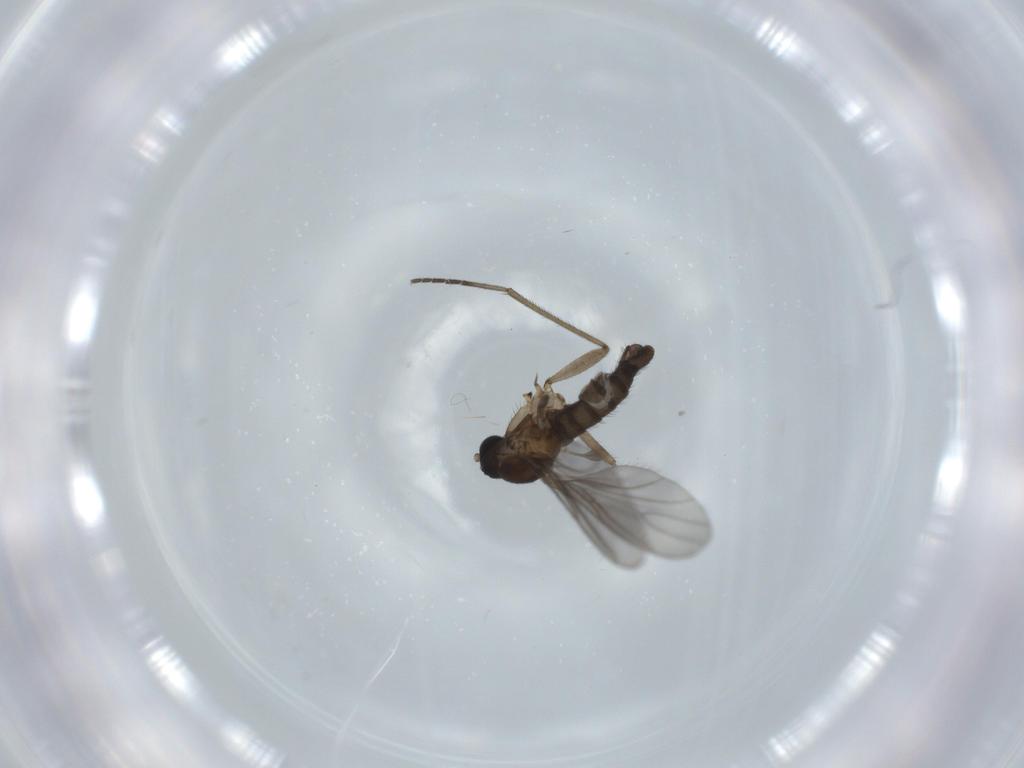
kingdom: Animalia
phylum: Arthropoda
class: Insecta
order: Diptera
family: Sciaridae
